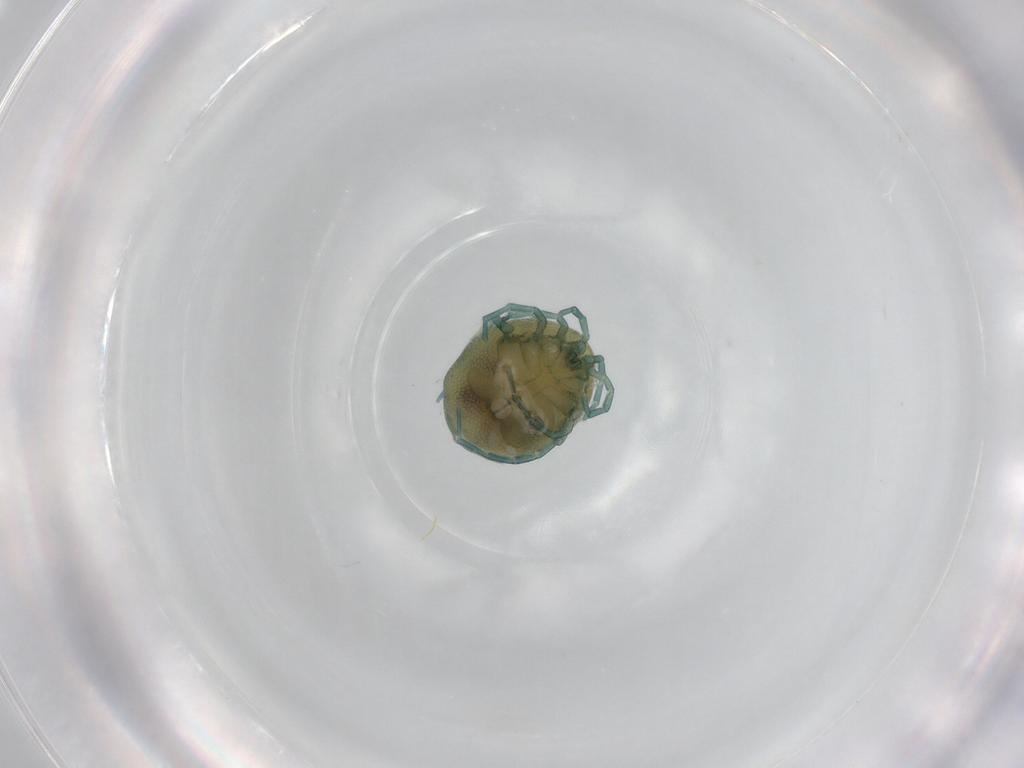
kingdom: Animalia
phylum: Arthropoda
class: Arachnida
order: Trombidiformes
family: Arrenuridae
